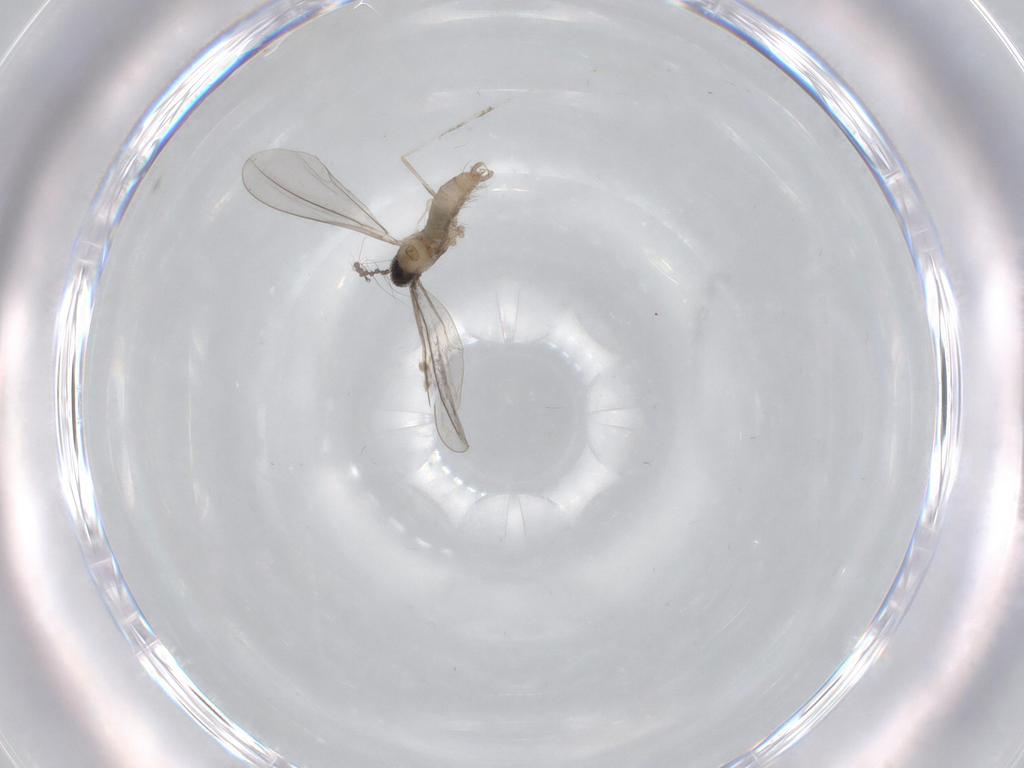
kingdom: Animalia
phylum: Arthropoda
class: Insecta
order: Diptera
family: Cecidomyiidae
